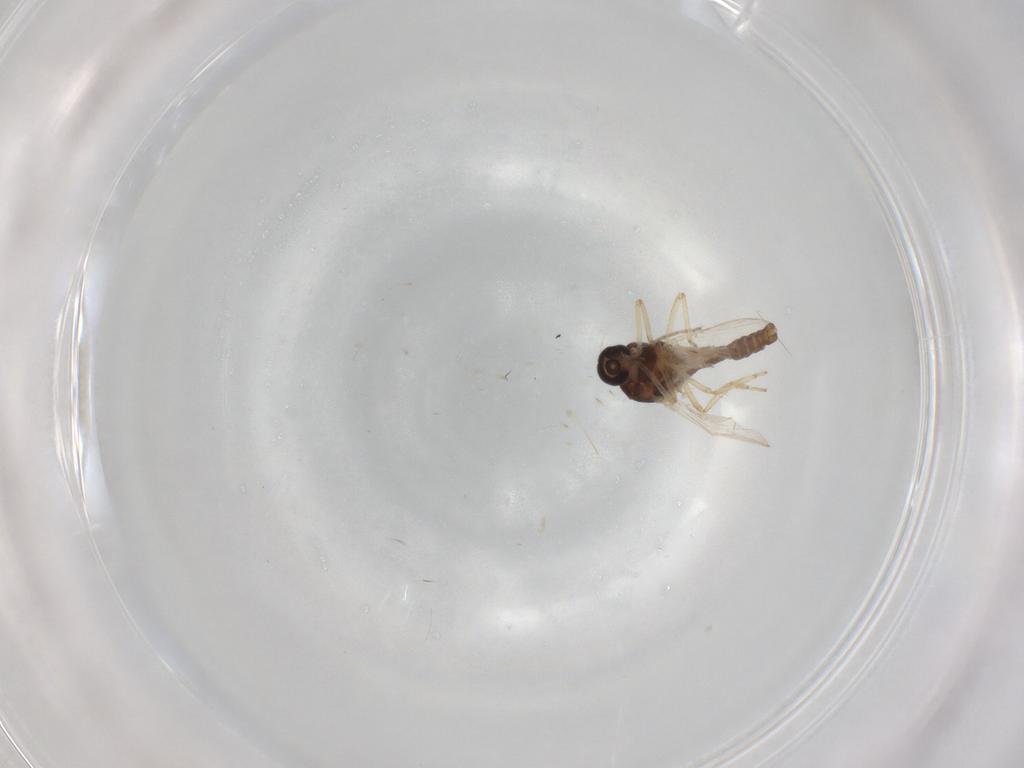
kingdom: Animalia
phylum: Arthropoda
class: Insecta
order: Diptera
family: Ceratopogonidae
